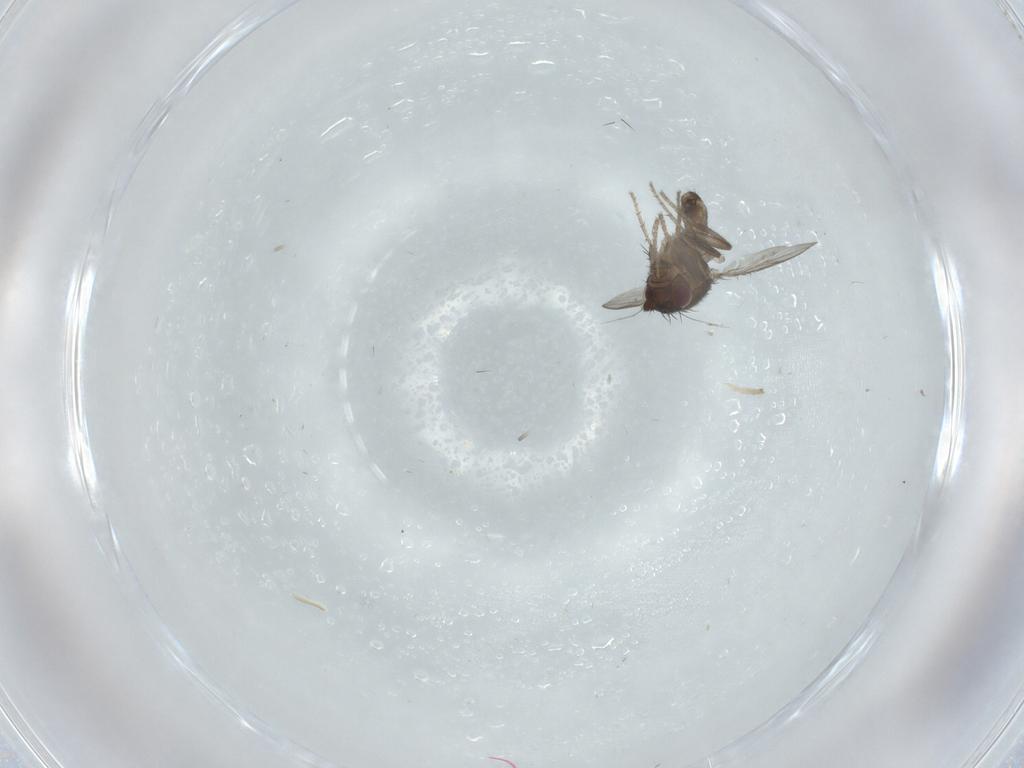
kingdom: Animalia
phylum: Arthropoda
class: Insecta
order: Diptera
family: Sphaeroceridae
